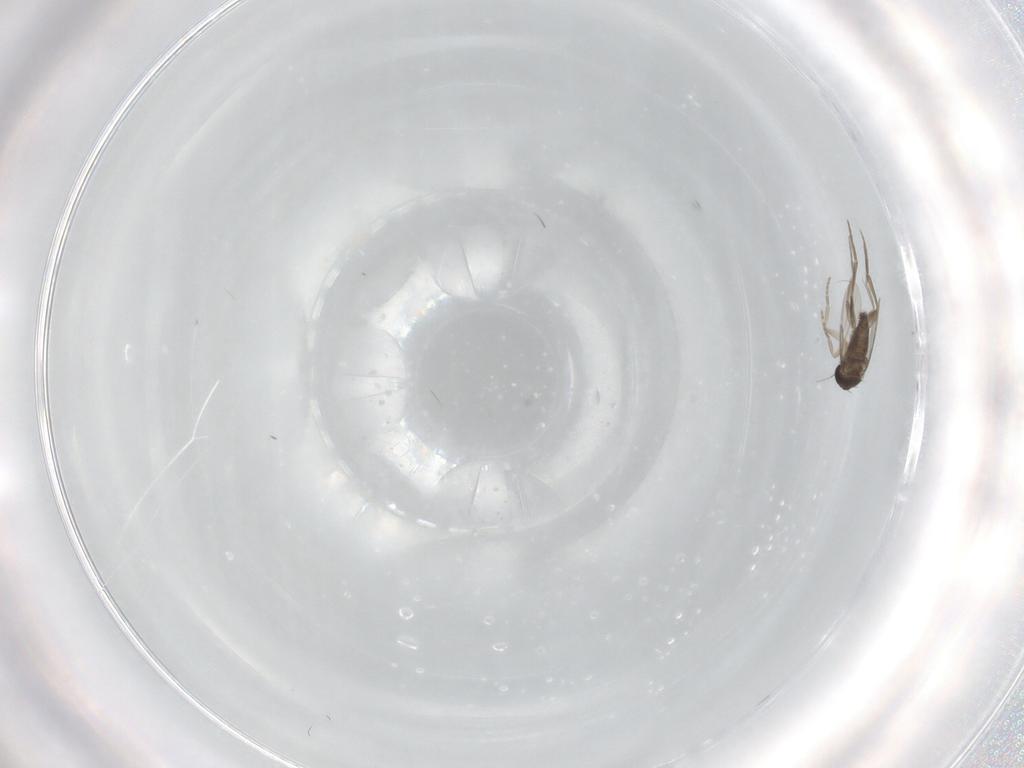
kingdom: Animalia
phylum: Arthropoda
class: Insecta
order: Diptera
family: Phoridae
